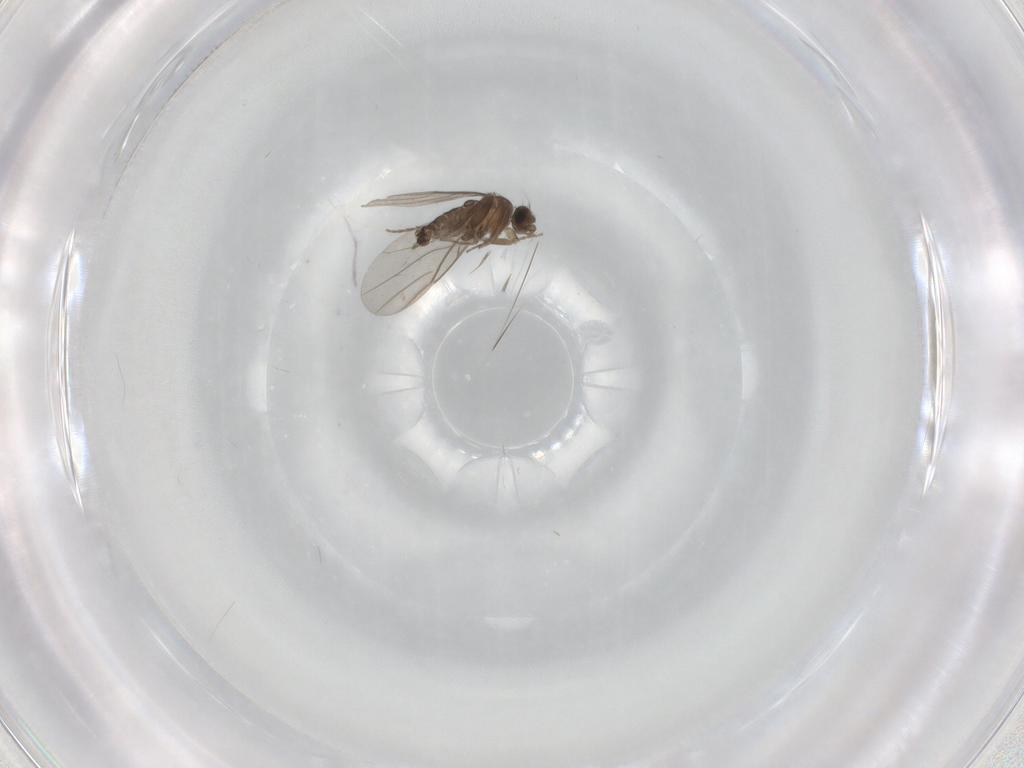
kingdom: Animalia
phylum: Arthropoda
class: Insecta
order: Diptera
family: Phoridae
